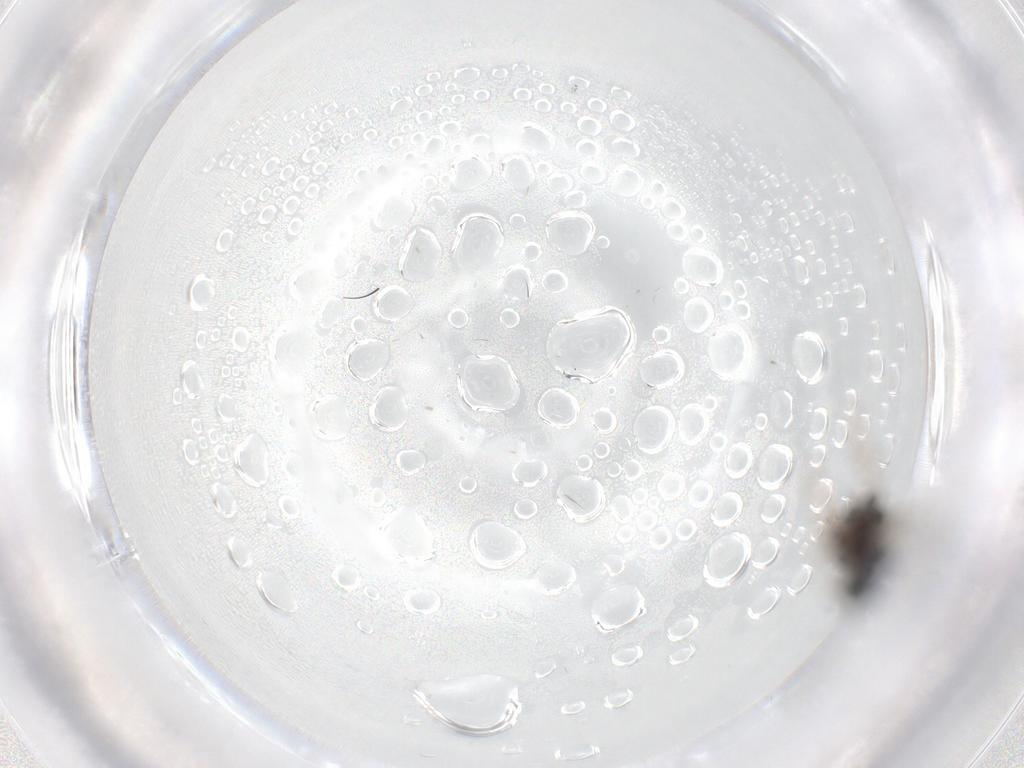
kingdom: Animalia
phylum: Arthropoda
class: Insecta
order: Hymenoptera
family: Diapriidae
